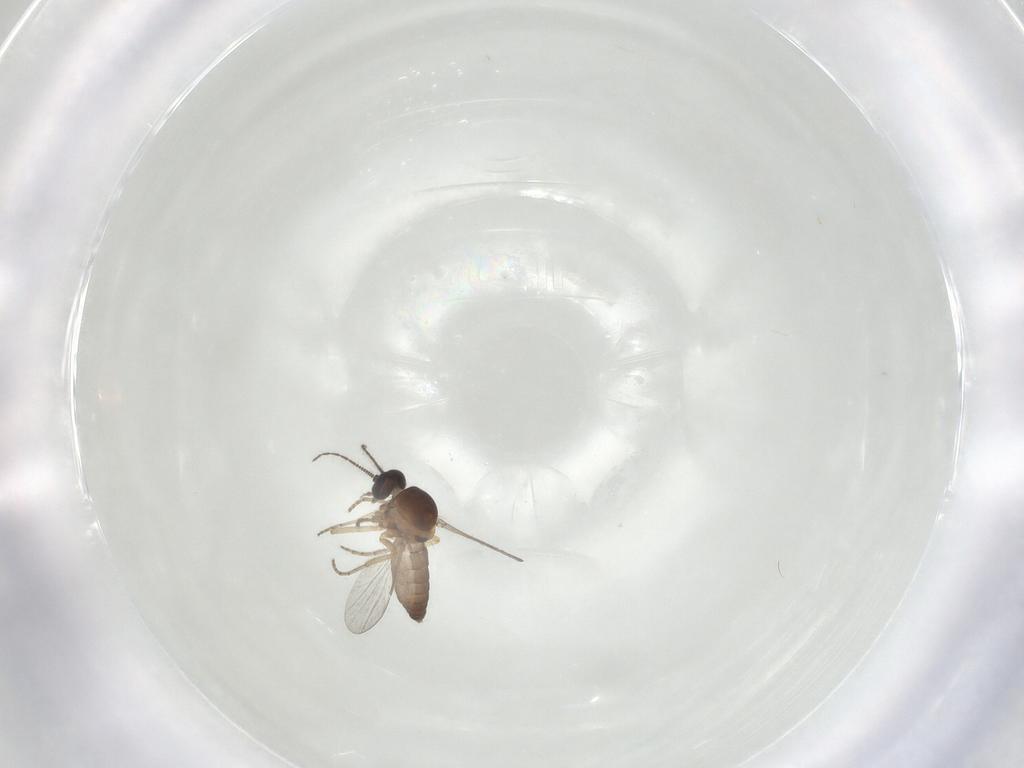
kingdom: Animalia
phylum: Arthropoda
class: Insecta
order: Diptera
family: Ceratopogonidae
